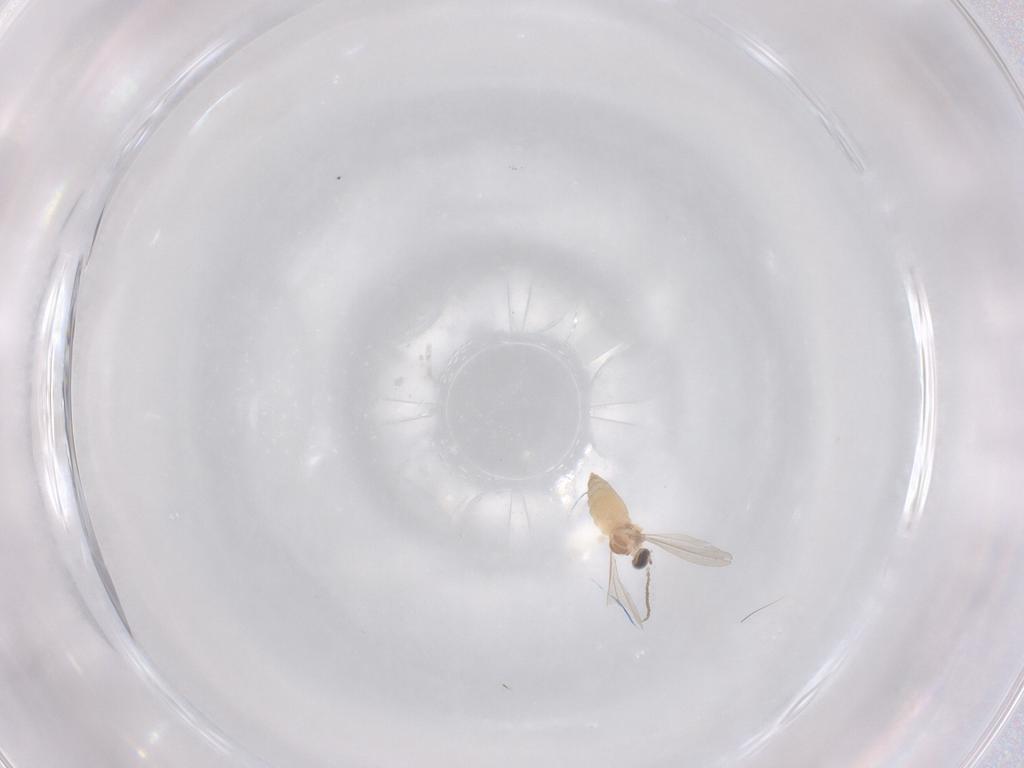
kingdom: Animalia
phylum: Arthropoda
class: Insecta
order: Diptera
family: Cecidomyiidae
